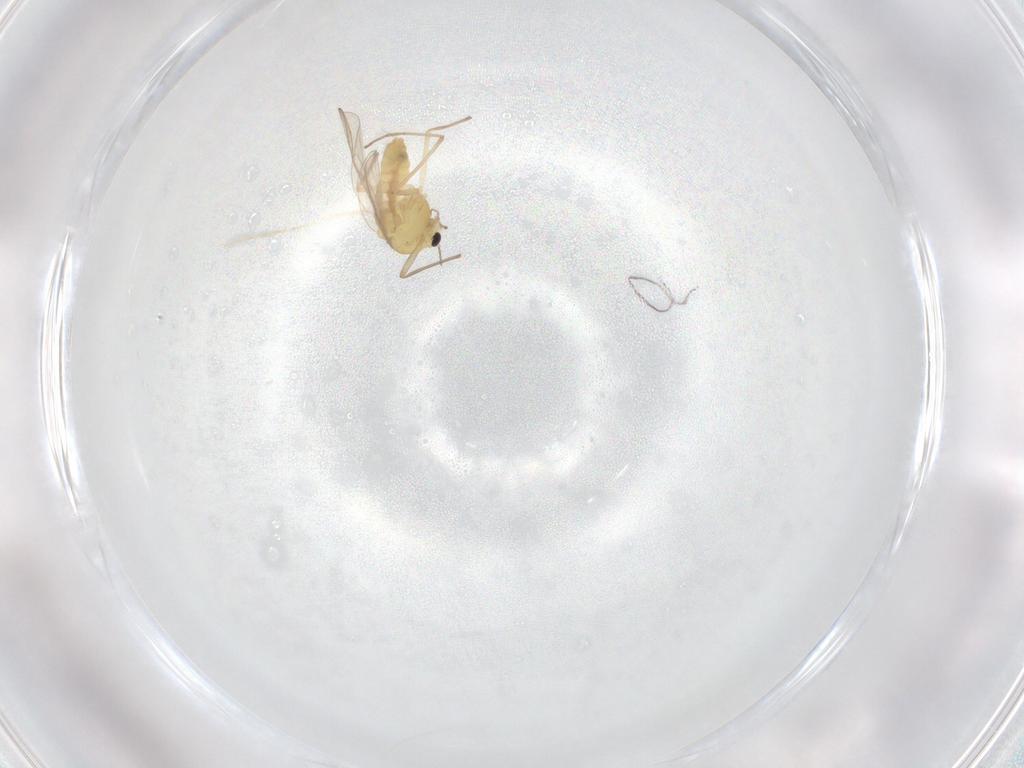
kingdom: Animalia
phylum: Arthropoda
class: Insecta
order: Diptera
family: Chironomidae
